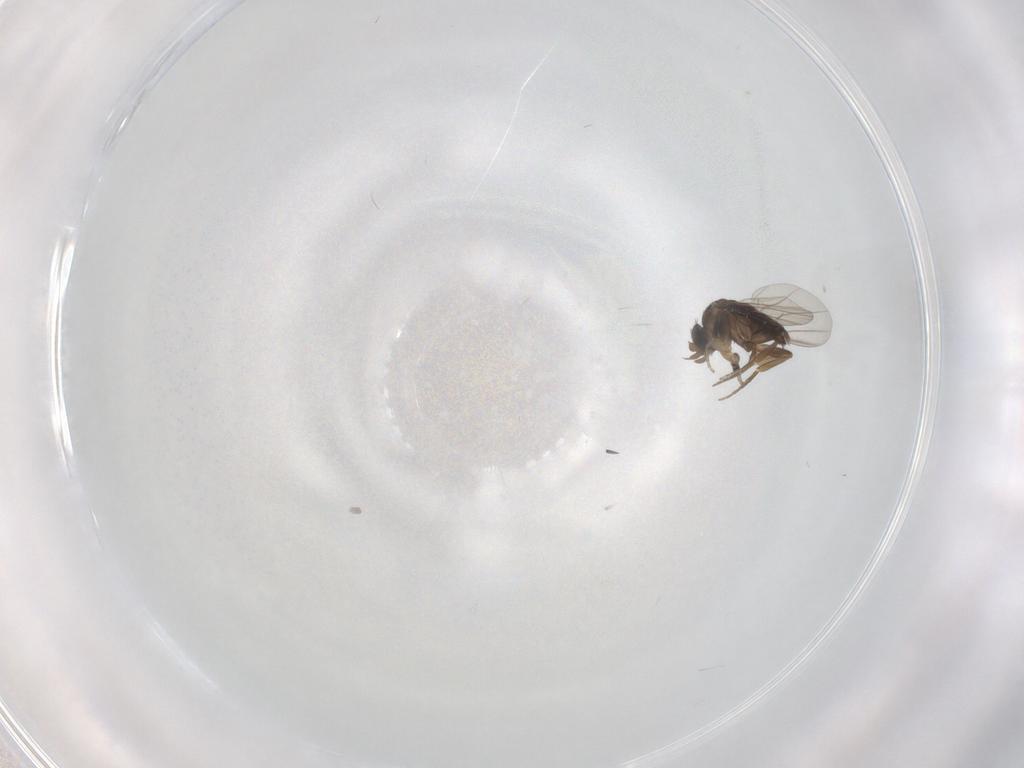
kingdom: Animalia
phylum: Arthropoda
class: Insecta
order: Diptera
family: Phoridae
